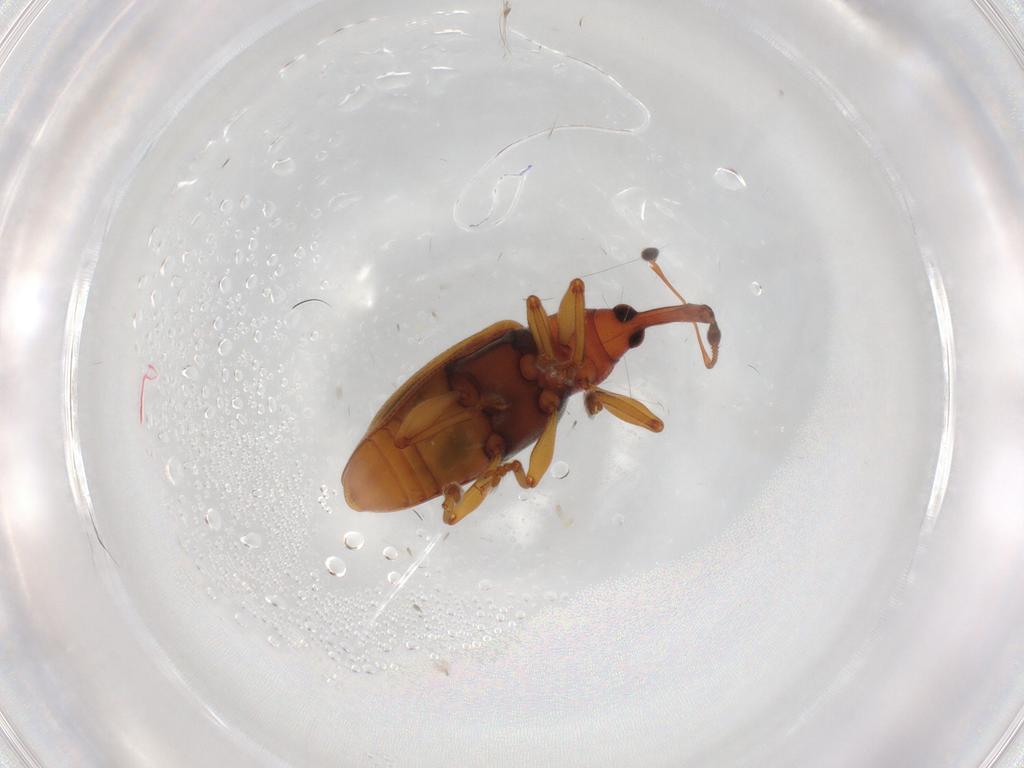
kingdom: Animalia
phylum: Arthropoda
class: Insecta
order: Coleoptera
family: Curculionidae
